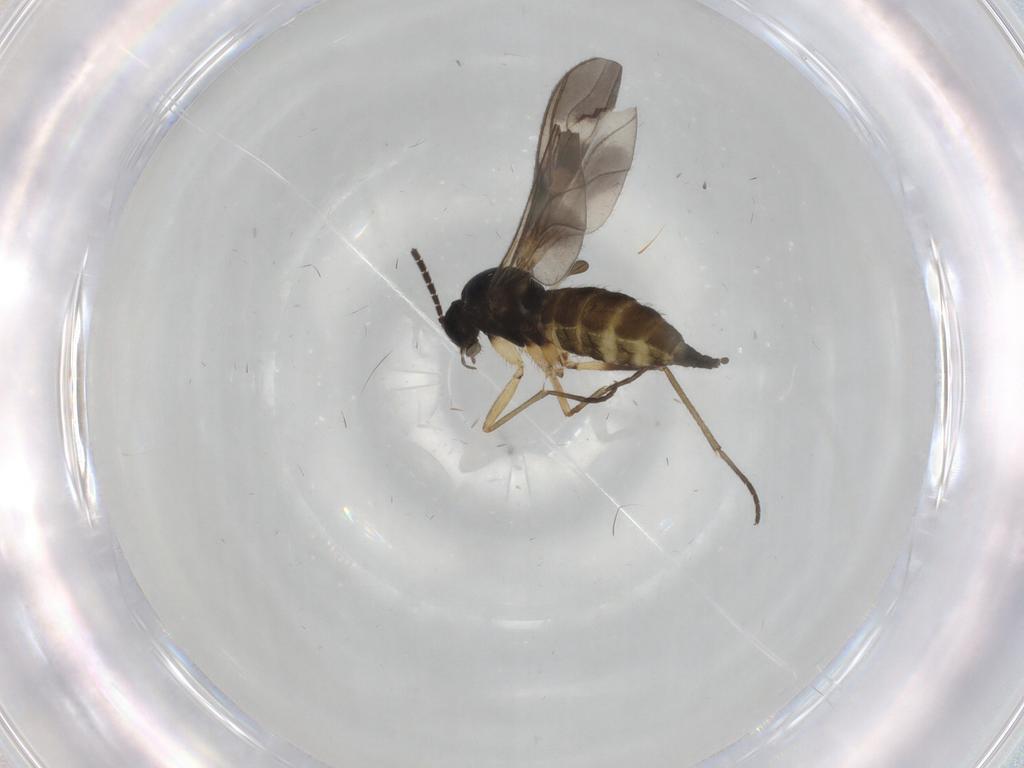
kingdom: Animalia
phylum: Arthropoda
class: Insecta
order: Diptera
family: Sciaridae
